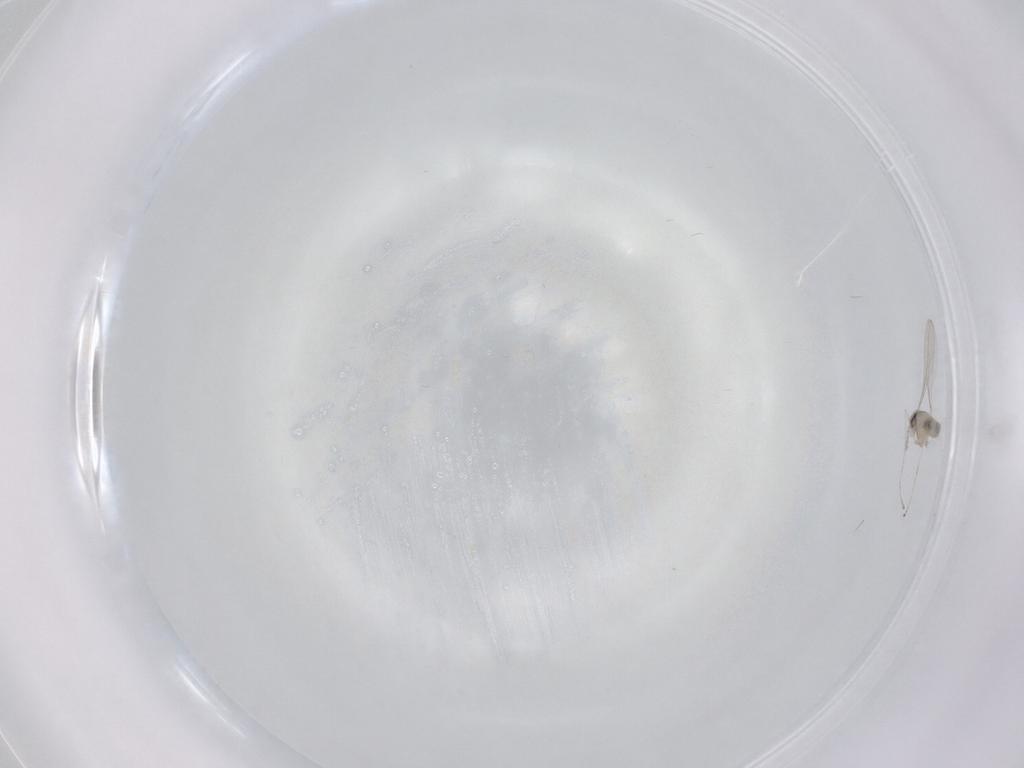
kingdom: Animalia
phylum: Arthropoda
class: Insecta
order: Diptera
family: Cecidomyiidae
